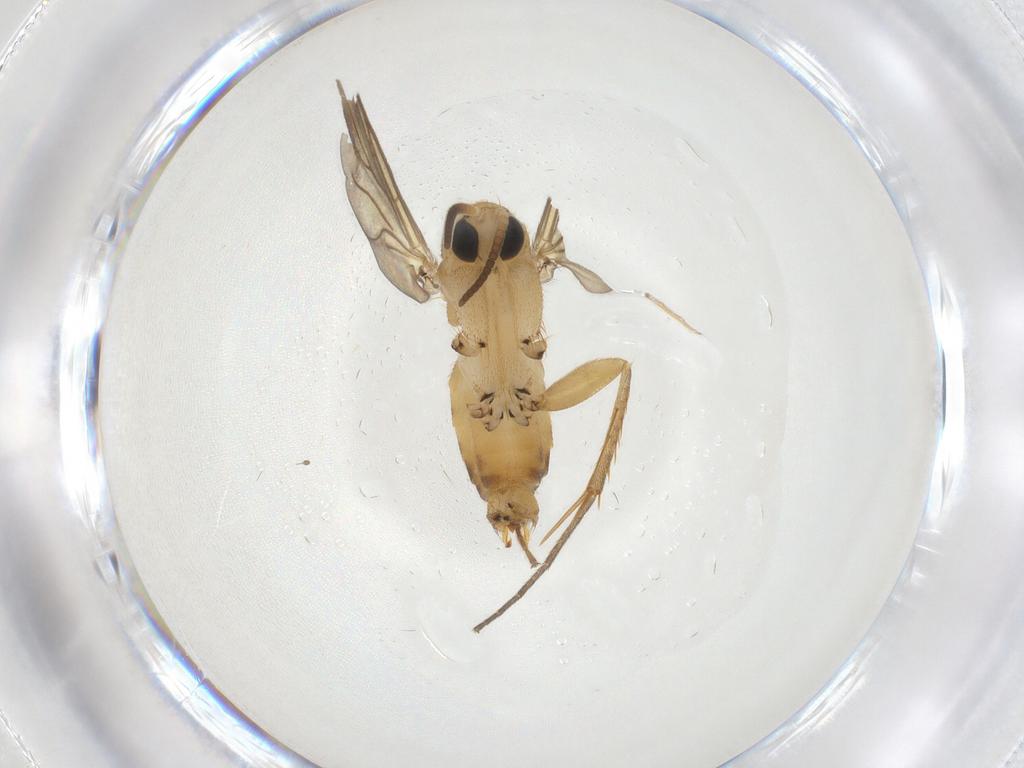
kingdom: Animalia
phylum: Arthropoda
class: Insecta
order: Diptera
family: Mycetophilidae
